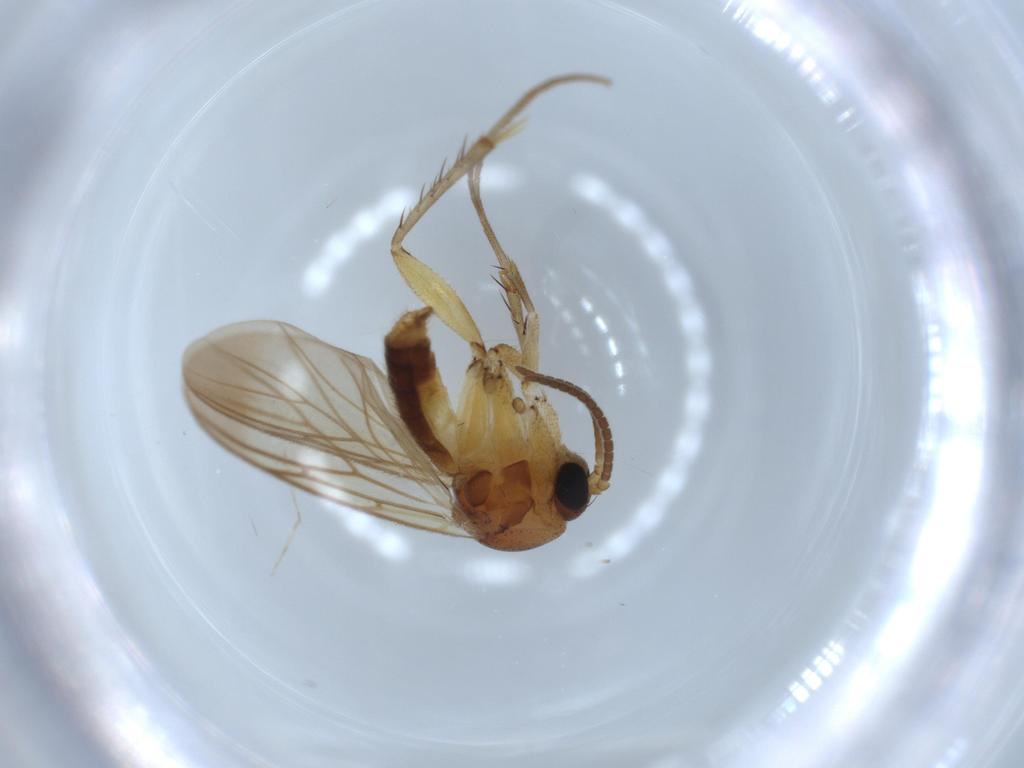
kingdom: Animalia
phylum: Arthropoda
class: Insecta
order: Diptera
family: Mycetophilidae
